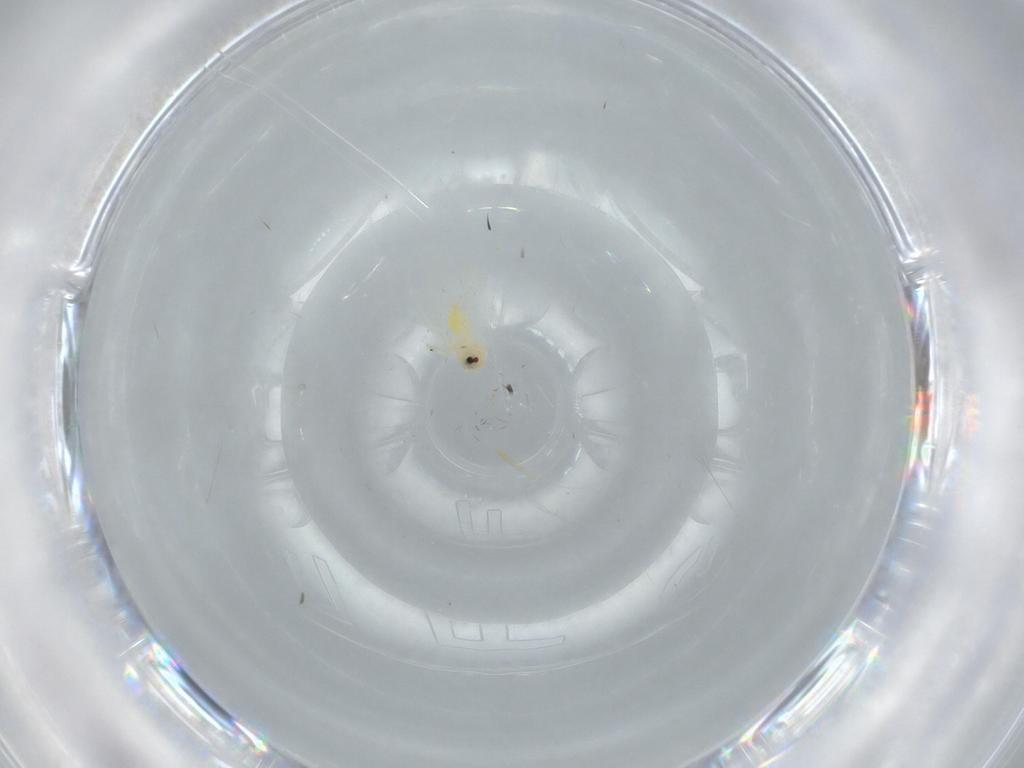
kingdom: Animalia
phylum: Arthropoda
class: Insecta
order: Hemiptera
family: Aleyrodidae
